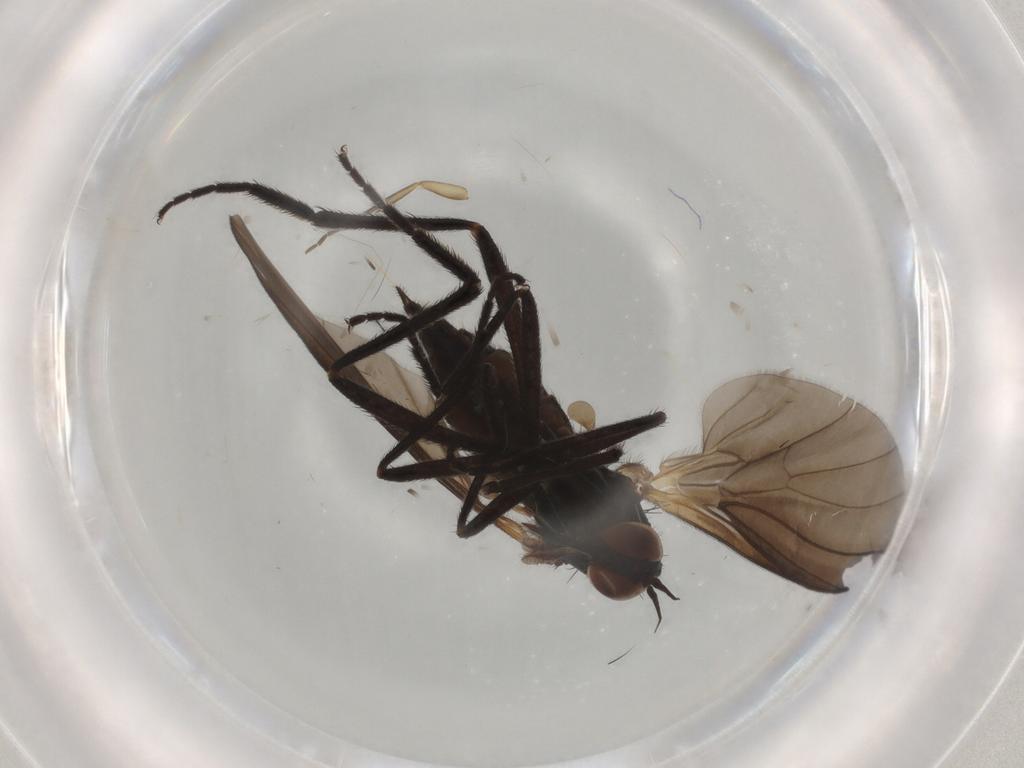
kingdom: Animalia
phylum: Arthropoda
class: Insecta
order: Diptera
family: Empididae
